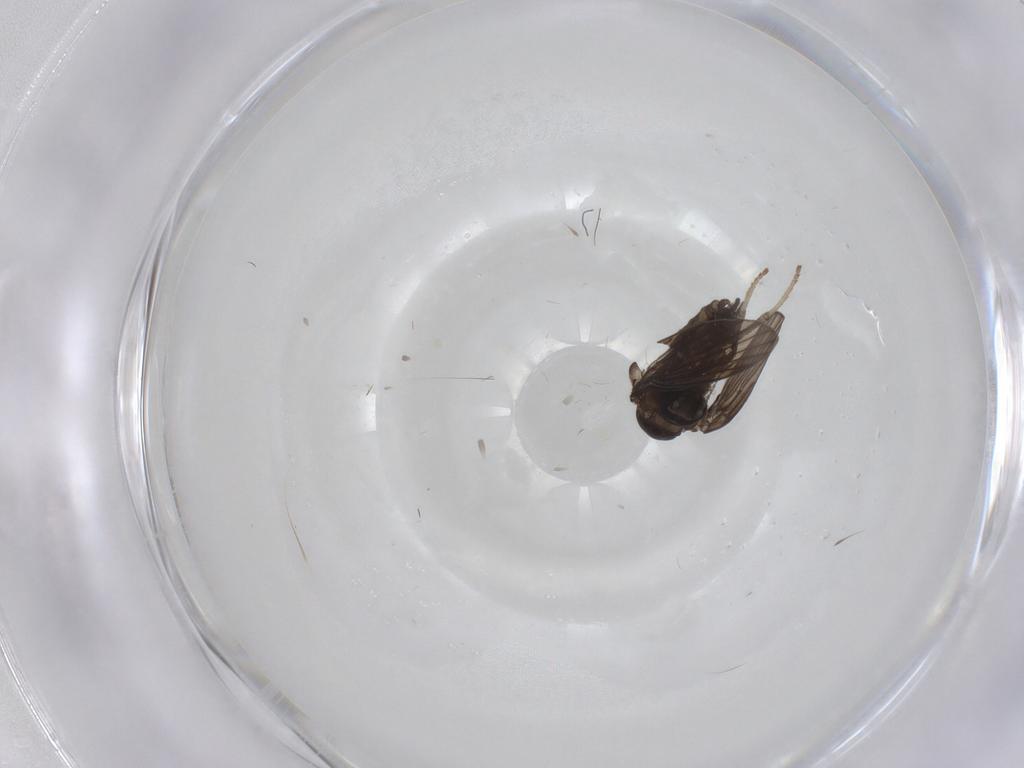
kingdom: Animalia
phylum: Arthropoda
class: Insecta
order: Diptera
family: Psychodidae
